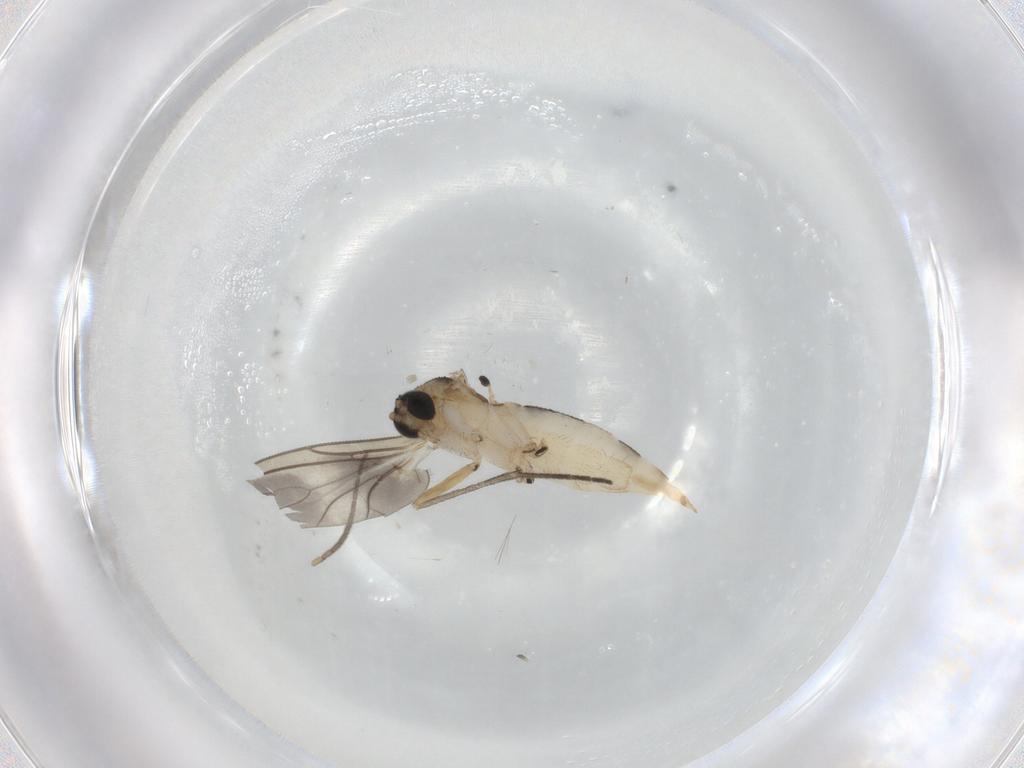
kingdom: Animalia
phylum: Arthropoda
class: Insecta
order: Diptera
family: Sciaridae
